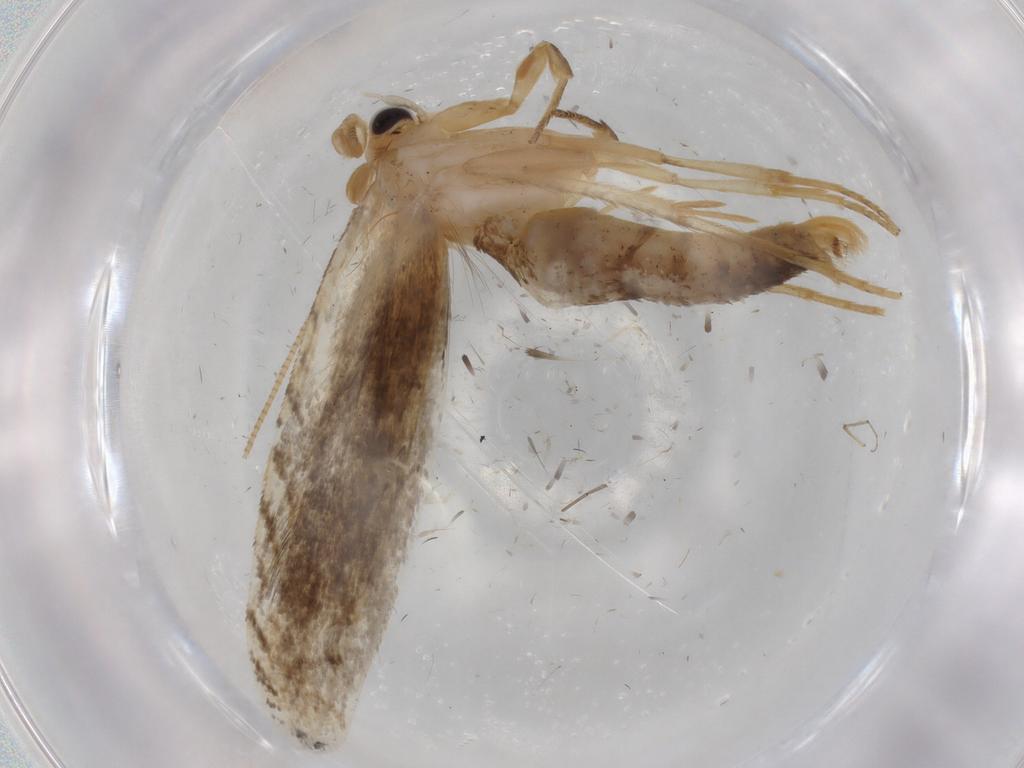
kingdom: Animalia
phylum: Arthropoda
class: Insecta
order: Lepidoptera
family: Nepticulidae
